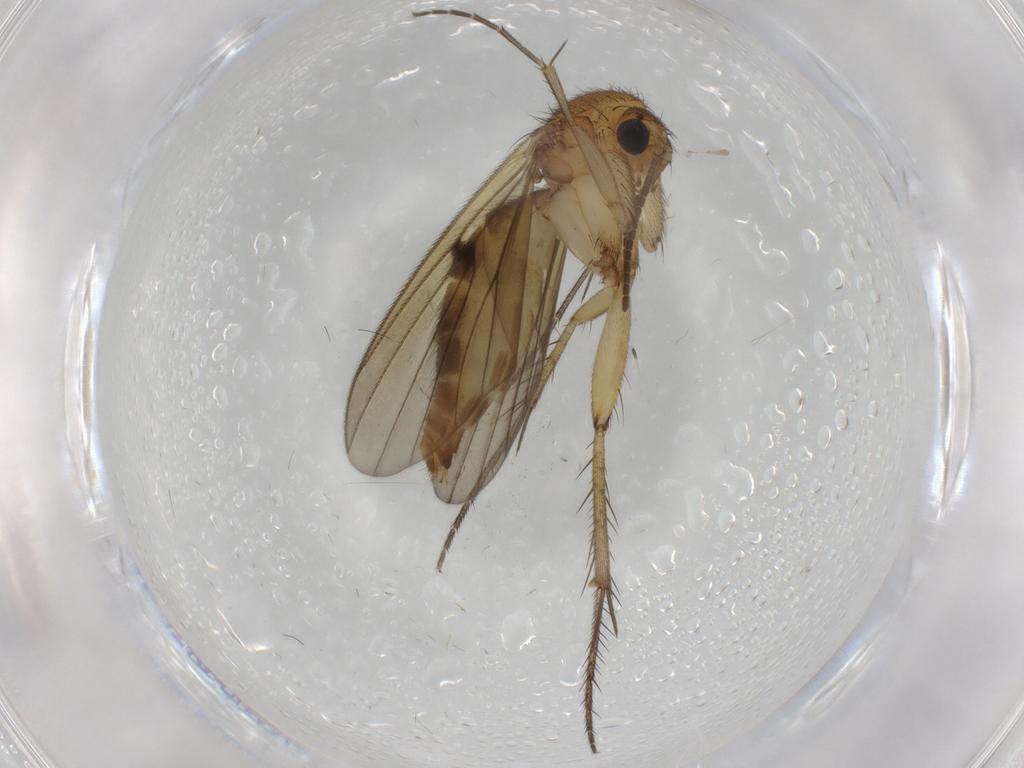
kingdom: Animalia
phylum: Arthropoda
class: Insecta
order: Diptera
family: Mycetophilidae
